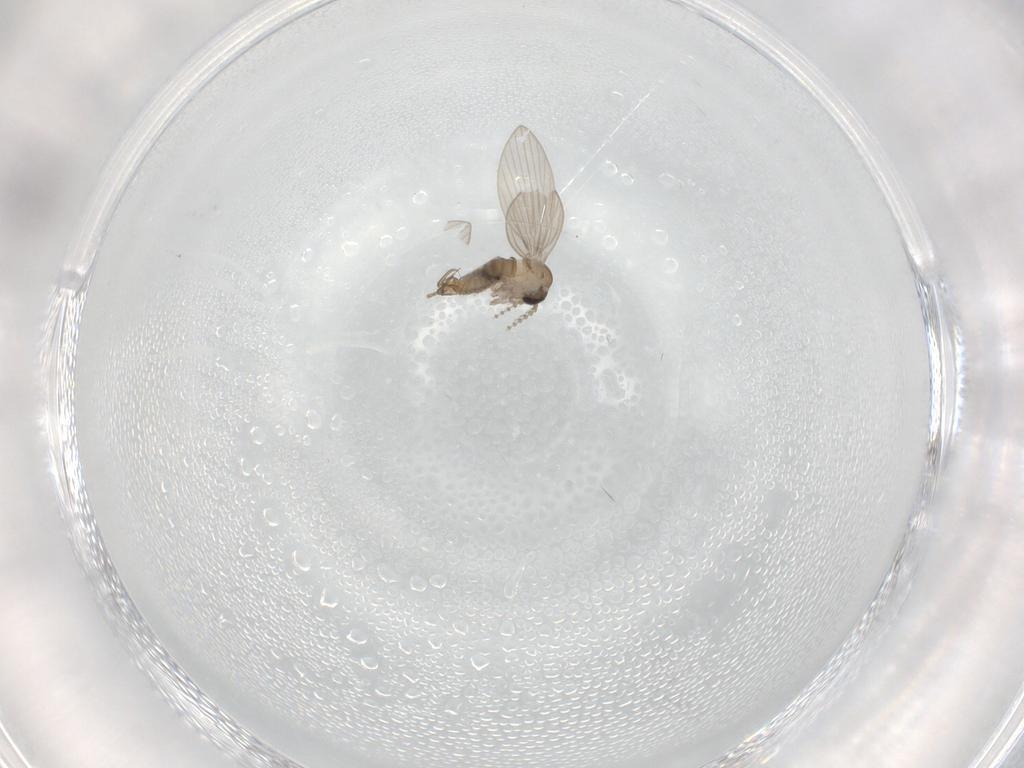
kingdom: Animalia
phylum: Arthropoda
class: Insecta
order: Diptera
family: Psychodidae
